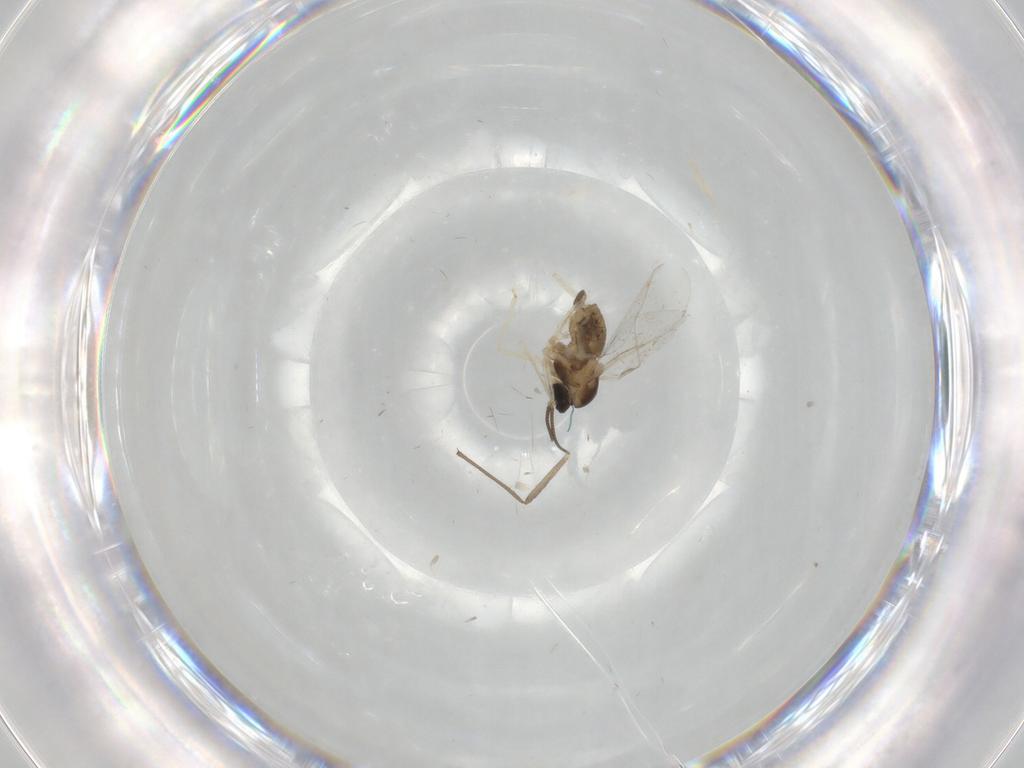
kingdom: Animalia
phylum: Arthropoda
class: Insecta
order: Diptera
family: Cecidomyiidae
